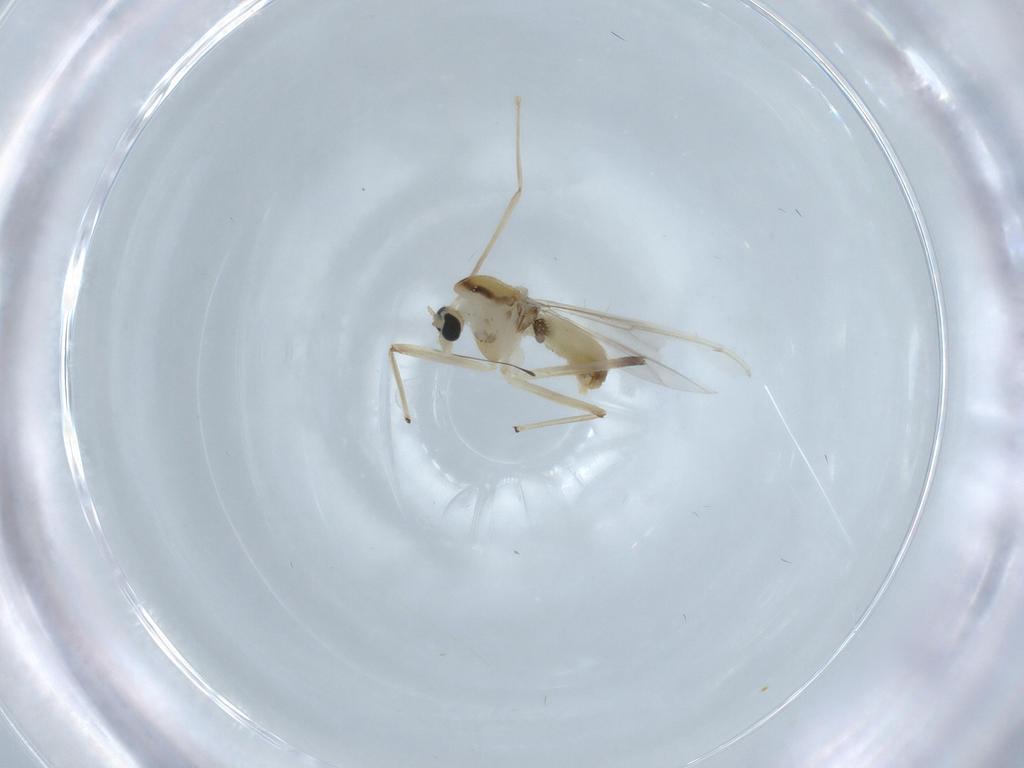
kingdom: Animalia
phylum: Arthropoda
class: Insecta
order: Diptera
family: Chironomidae
